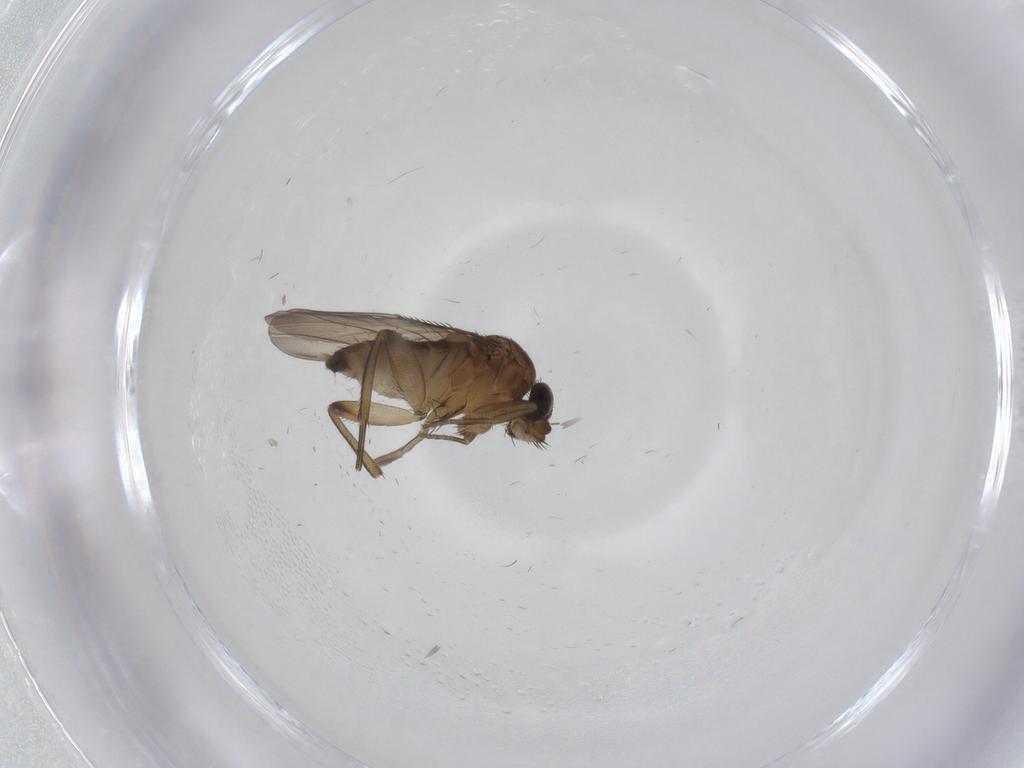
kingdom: Animalia
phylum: Arthropoda
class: Insecta
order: Diptera
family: Phoridae
